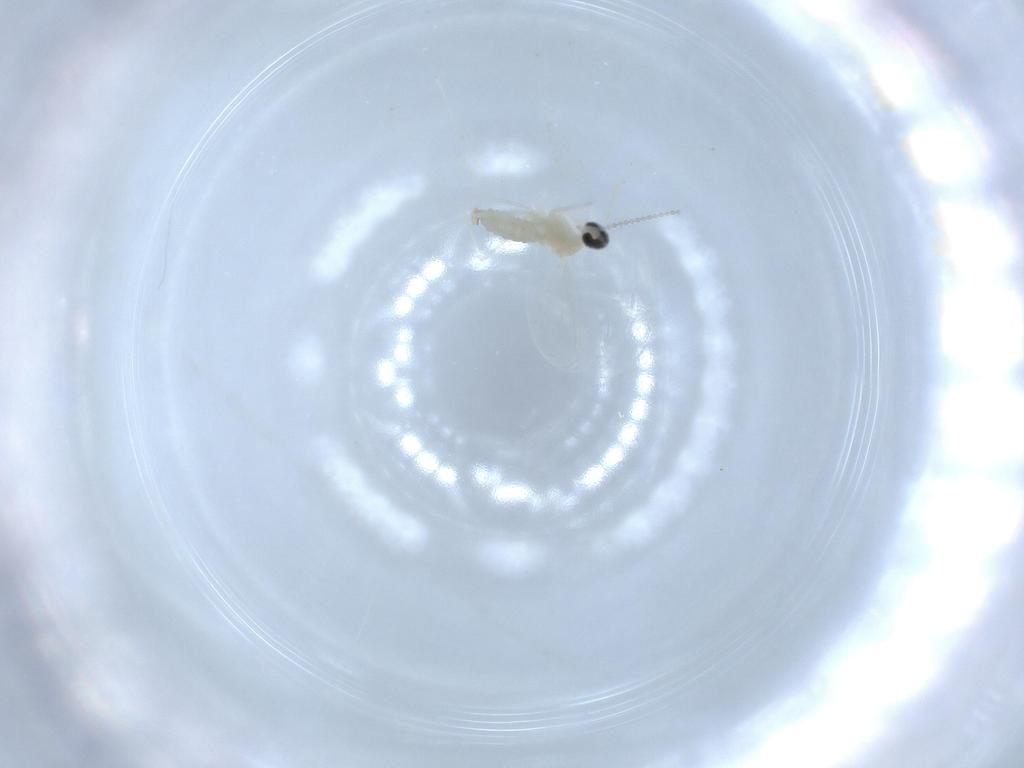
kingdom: Animalia
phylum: Arthropoda
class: Insecta
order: Diptera
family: Cecidomyiidae
